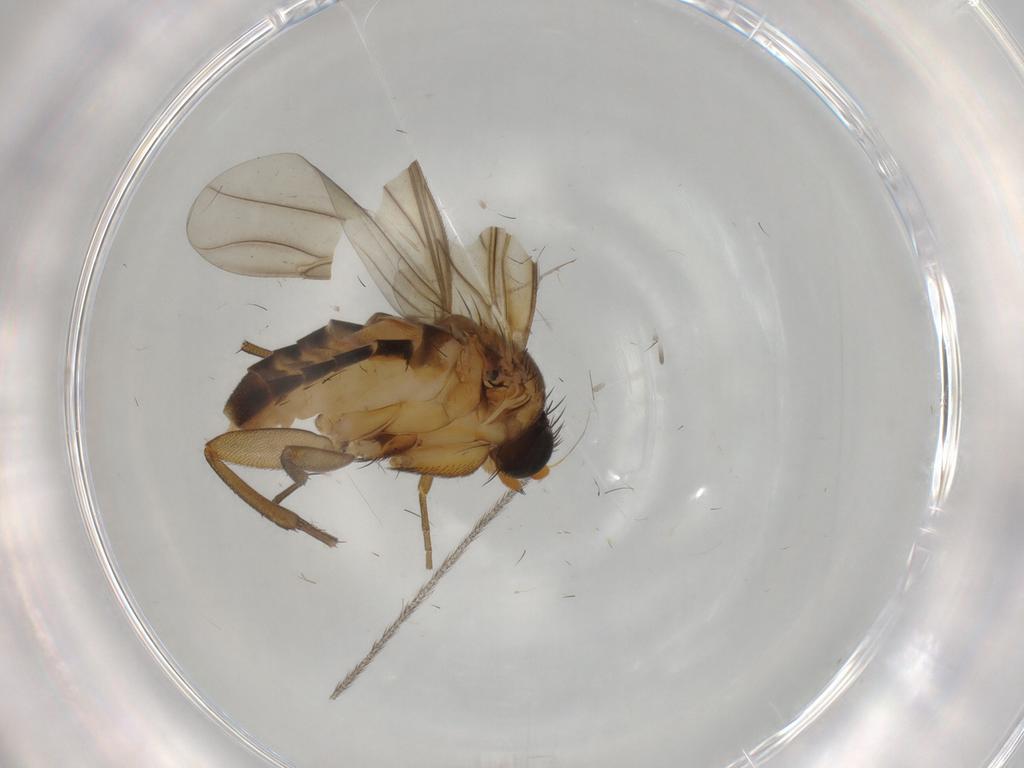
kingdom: Animalia
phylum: Arthropoda
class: Insecta
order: Diptera
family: Phoridae
